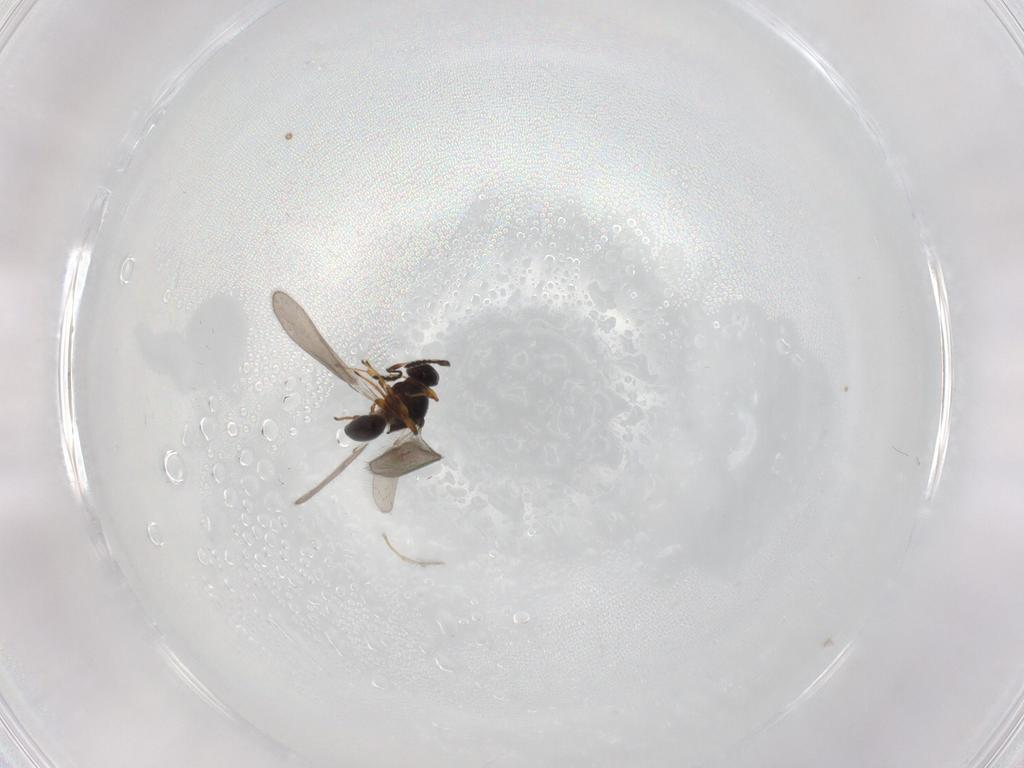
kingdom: Animalia
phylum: Arthropoda
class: Insecta
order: Hymenoptera
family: Platygastridae
